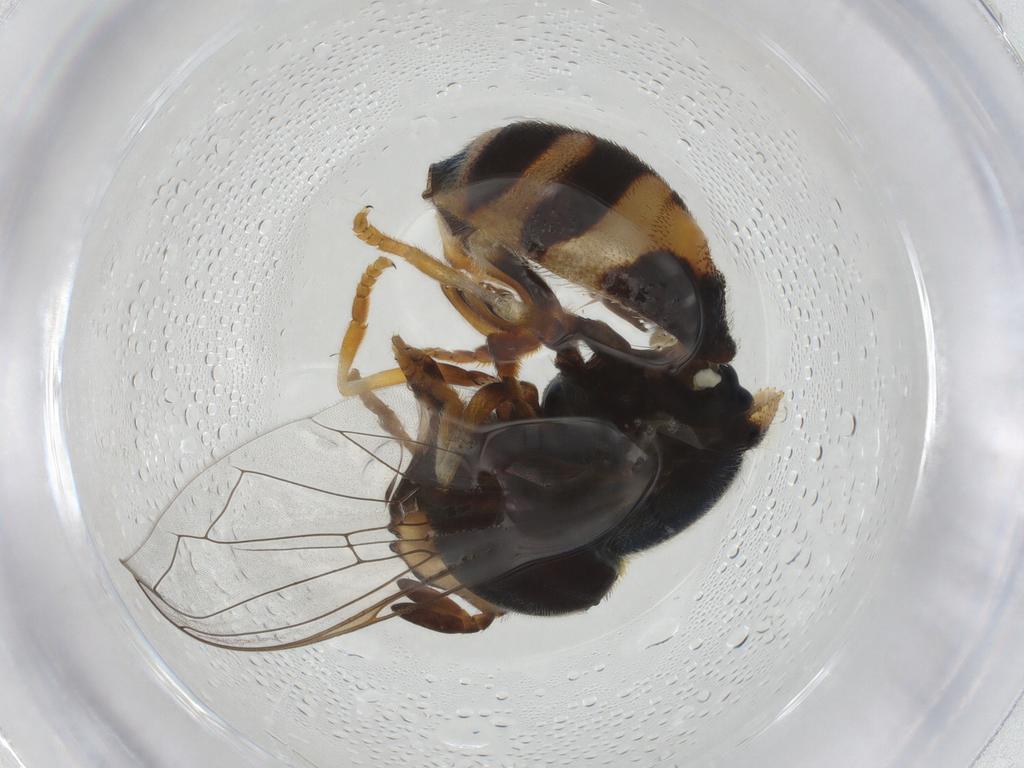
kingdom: Animalia
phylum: Arthropoda
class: Insecta
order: Diptera
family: Syrphidae
